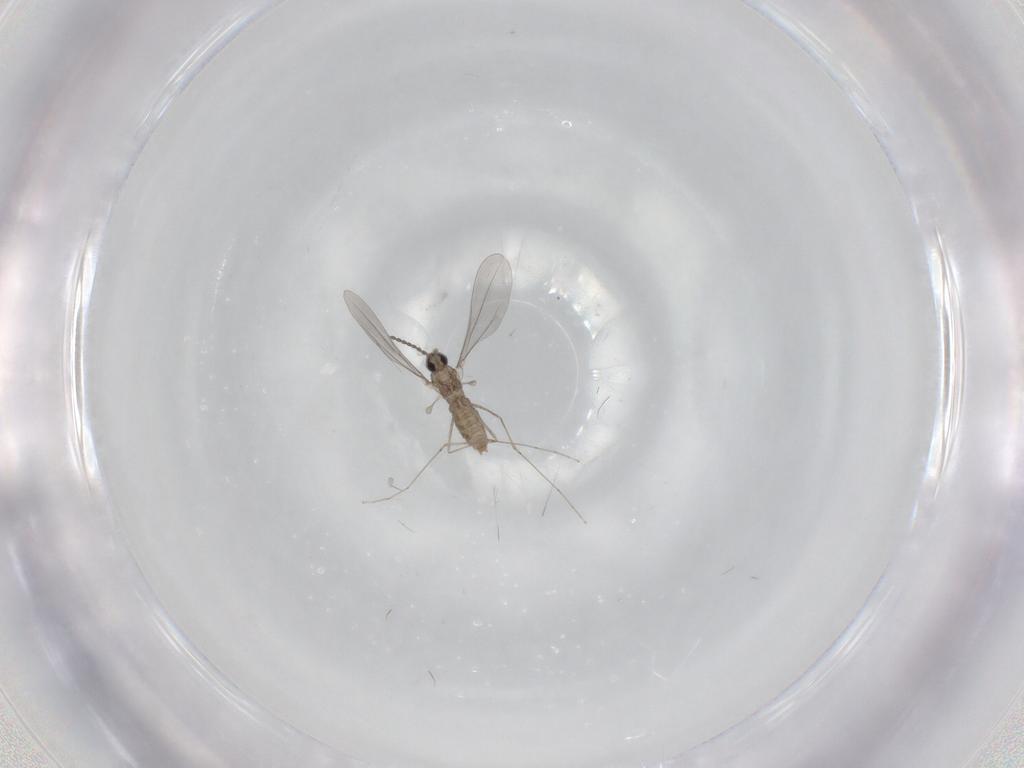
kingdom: Animalia
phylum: Arthropoda
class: Insecta
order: Diptera
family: Cecidomyiidae
